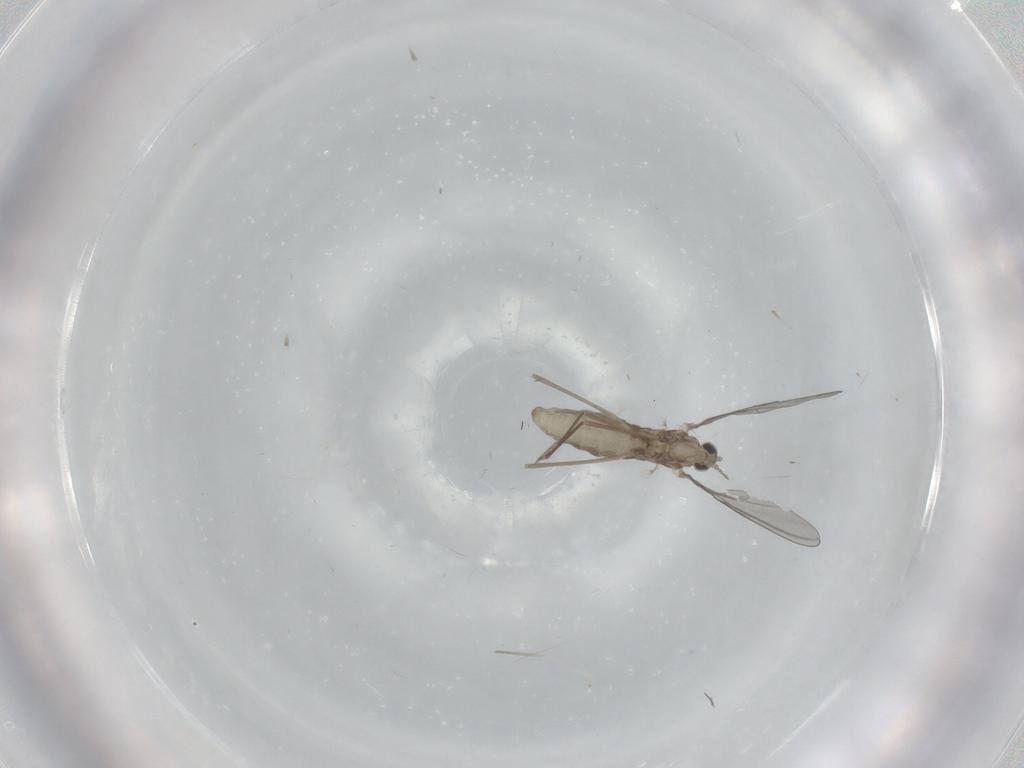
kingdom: Animalia
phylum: Arthropoda
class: Insecta
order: Diptera
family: Cecidomyiidae
